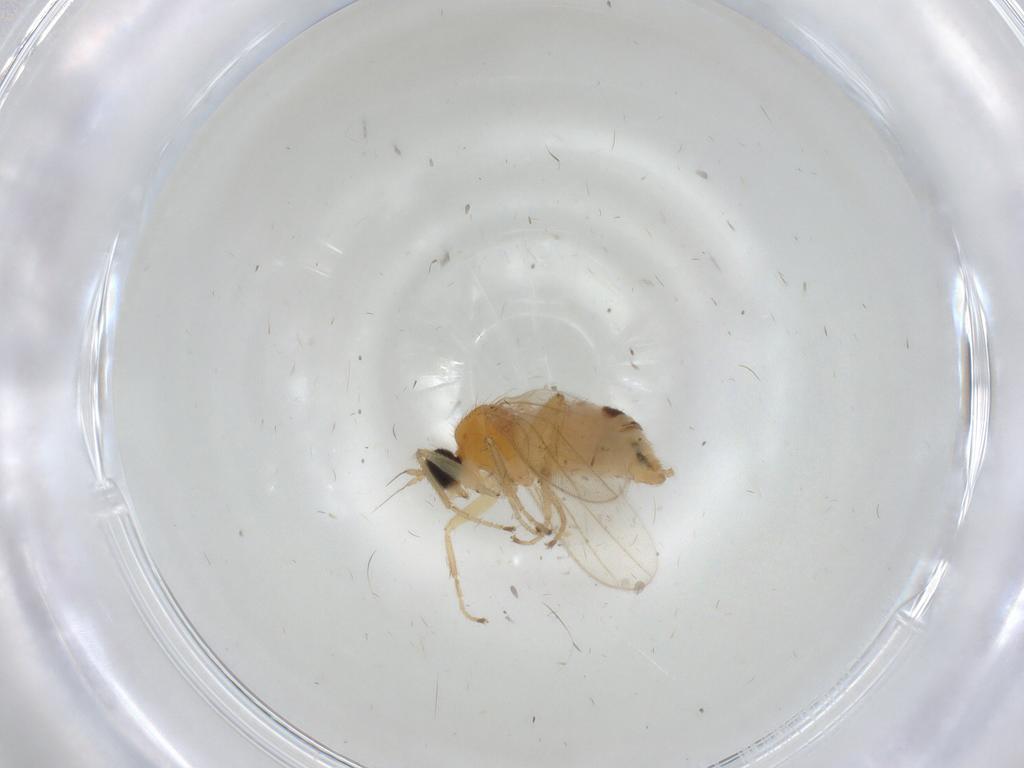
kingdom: Animalia
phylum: Arthropoda
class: Insecta
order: Diptera
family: Hybotidae
